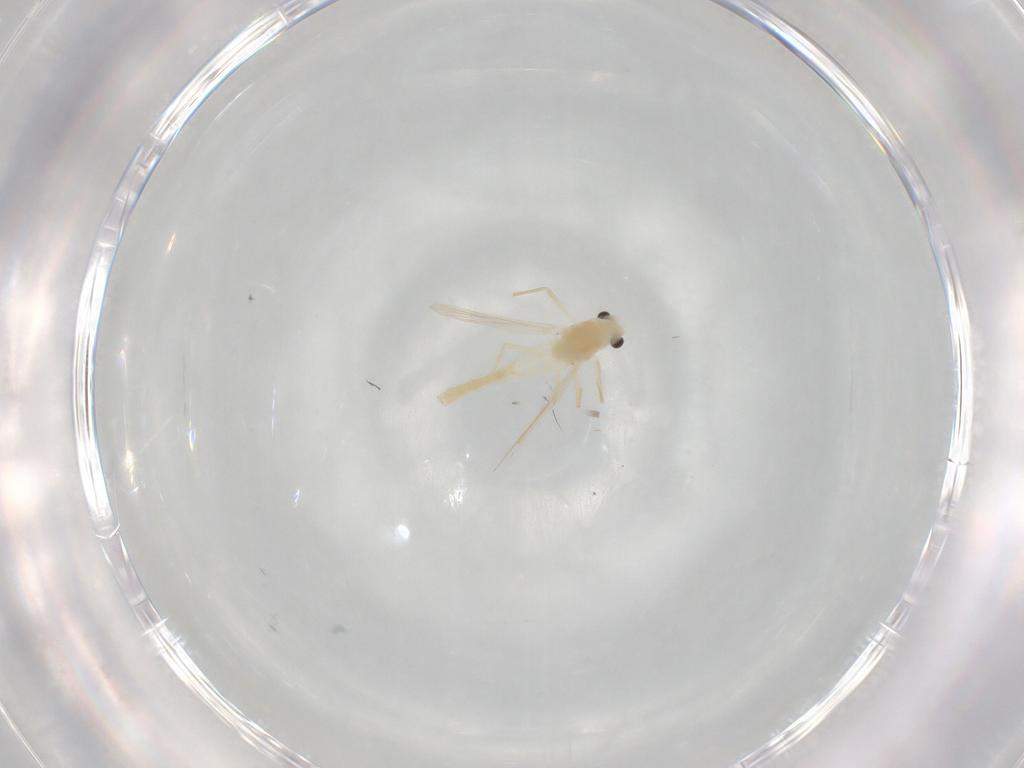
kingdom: Animalia
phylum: Arthropoda
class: Insecta
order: Diptera
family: Chironomidae
